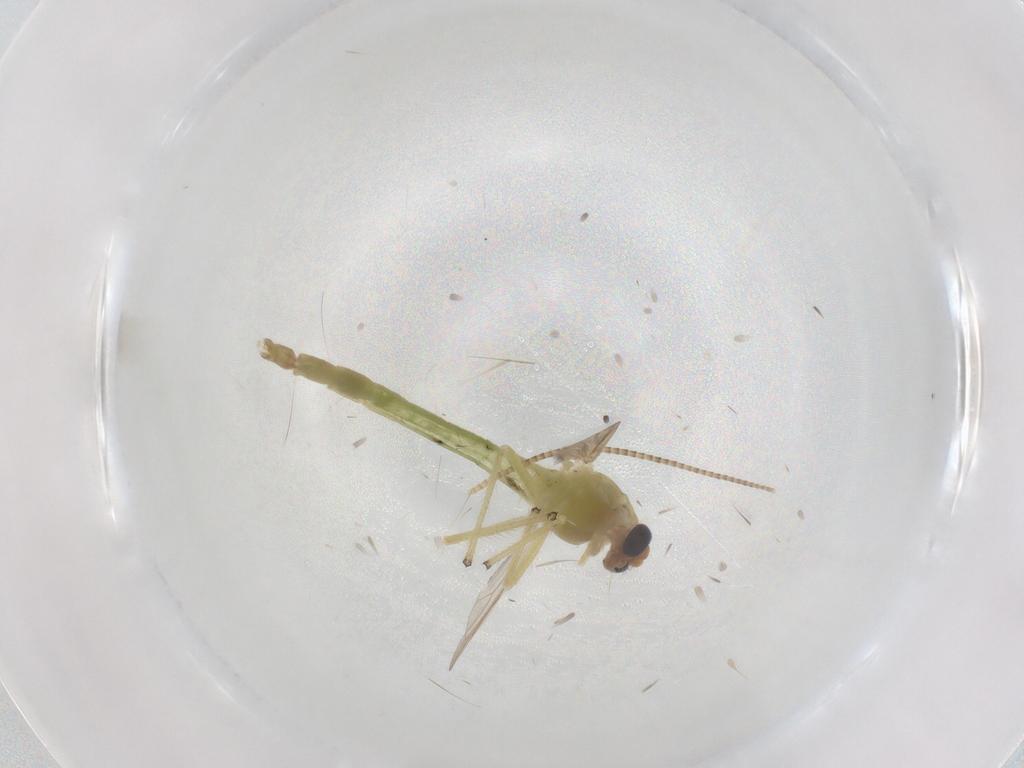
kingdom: Animalia
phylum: Arthropoda
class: Insecta
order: Diptera
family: Chironomidae
